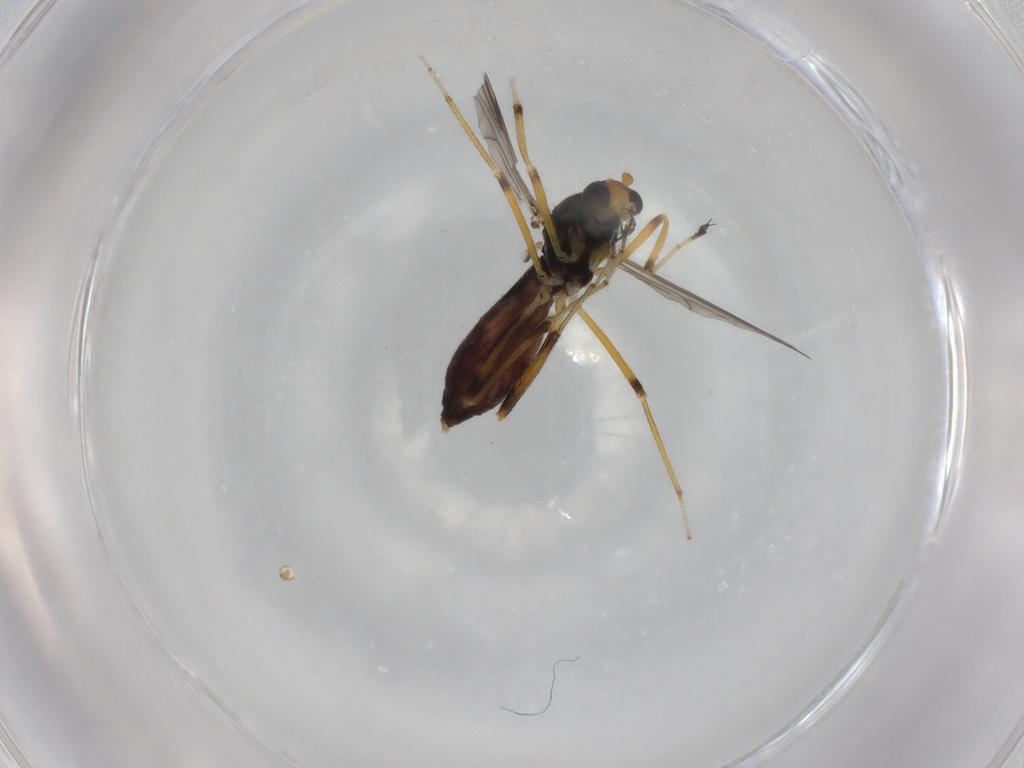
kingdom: Animalia
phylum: Arthropoda
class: Insecta
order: Diptera
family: Ceratopogonidae
